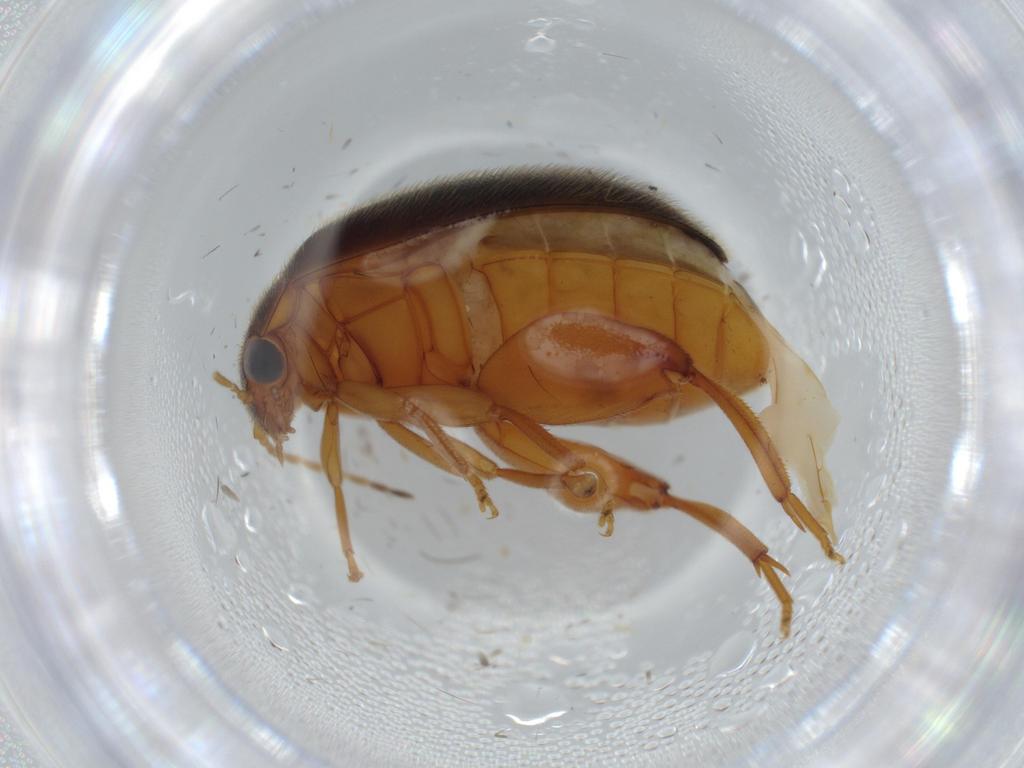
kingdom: Animalia
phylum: Arthropoda
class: Insecta
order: Coleoptera
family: Scirtidae
